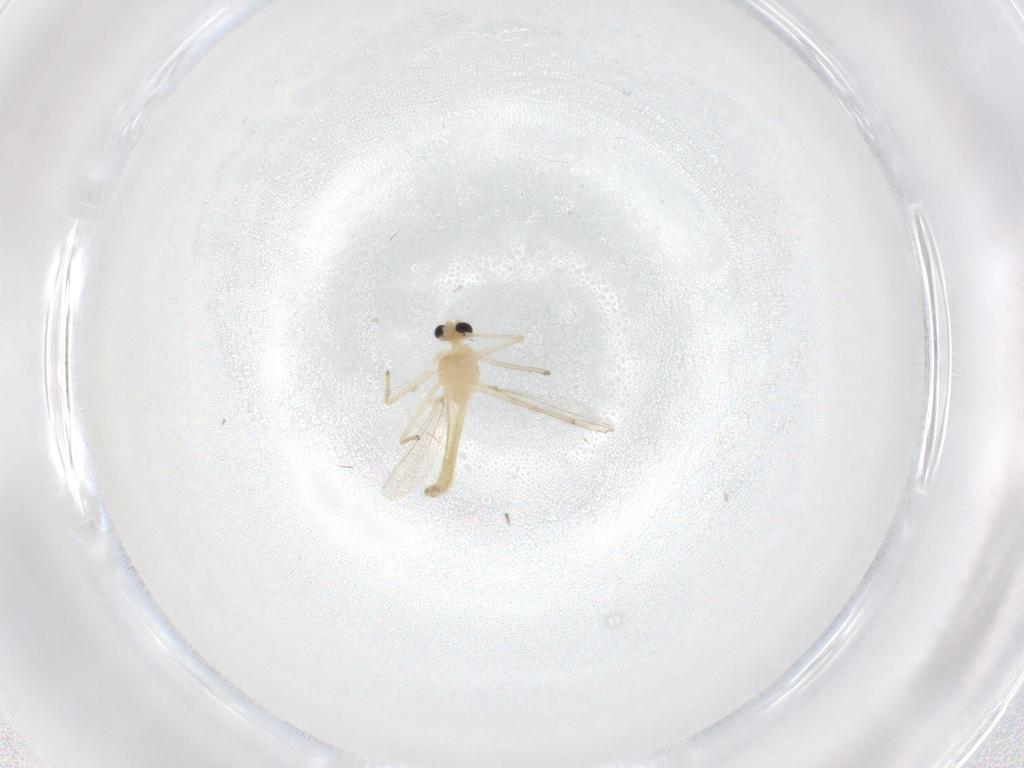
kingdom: Animalia
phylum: Arthropoda
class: Insecta
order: Diptera
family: Chironomidae
